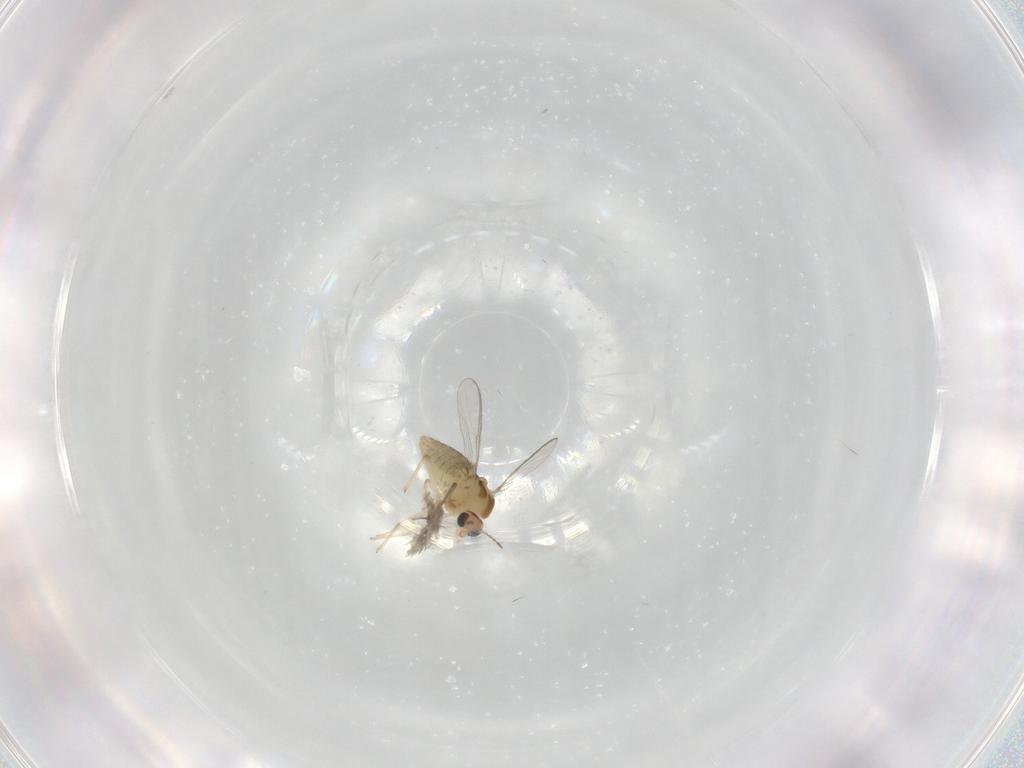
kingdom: Animalia
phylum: Arthropoda
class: Insecta
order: Diptera
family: Chironomidae
